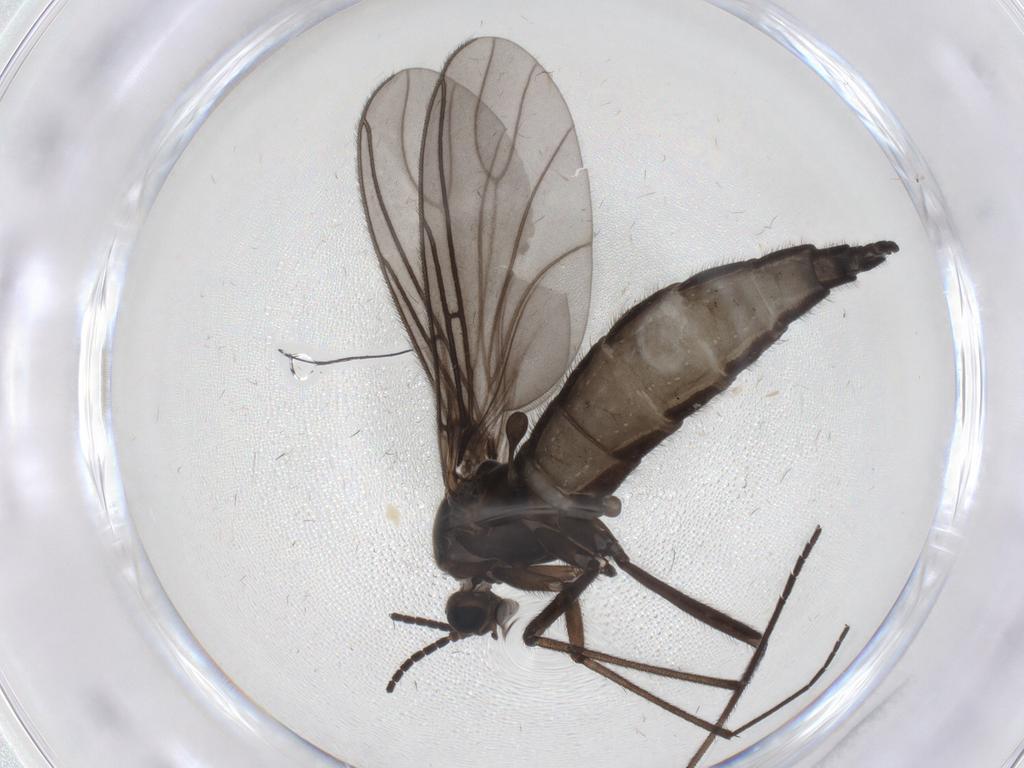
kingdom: Animalia
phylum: Arthropoda
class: Insecta
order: Diptera
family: Sciaridae
